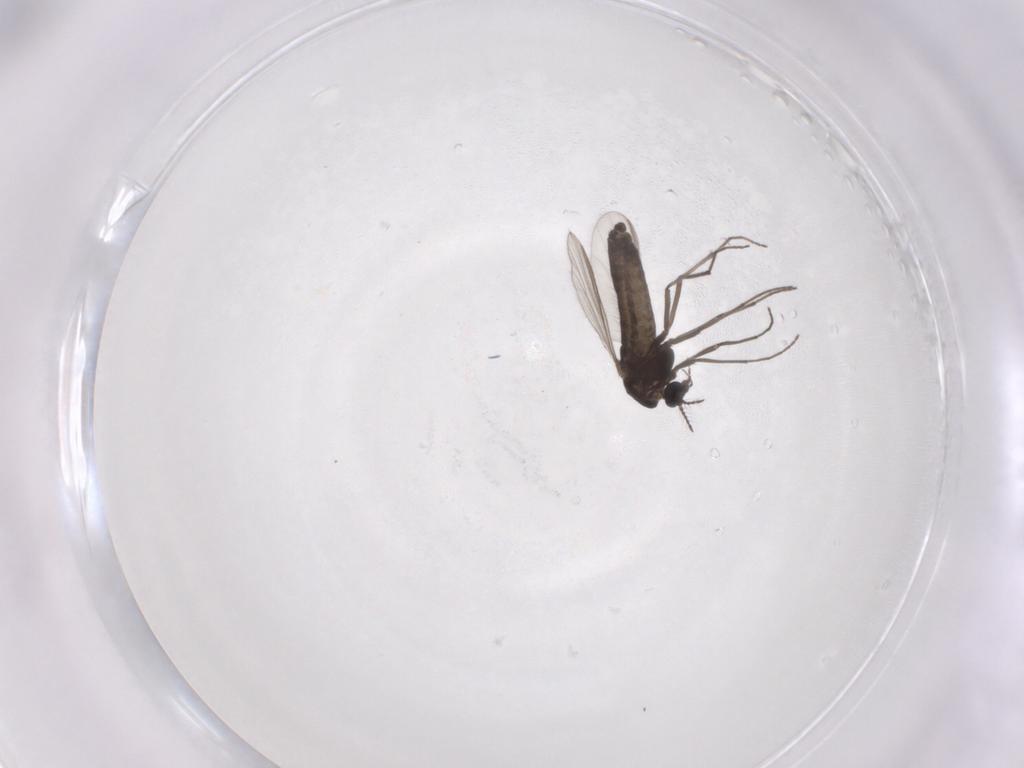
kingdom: Animalia
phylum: Arthropoda
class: Insecta
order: Diptera
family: Chironomidae
